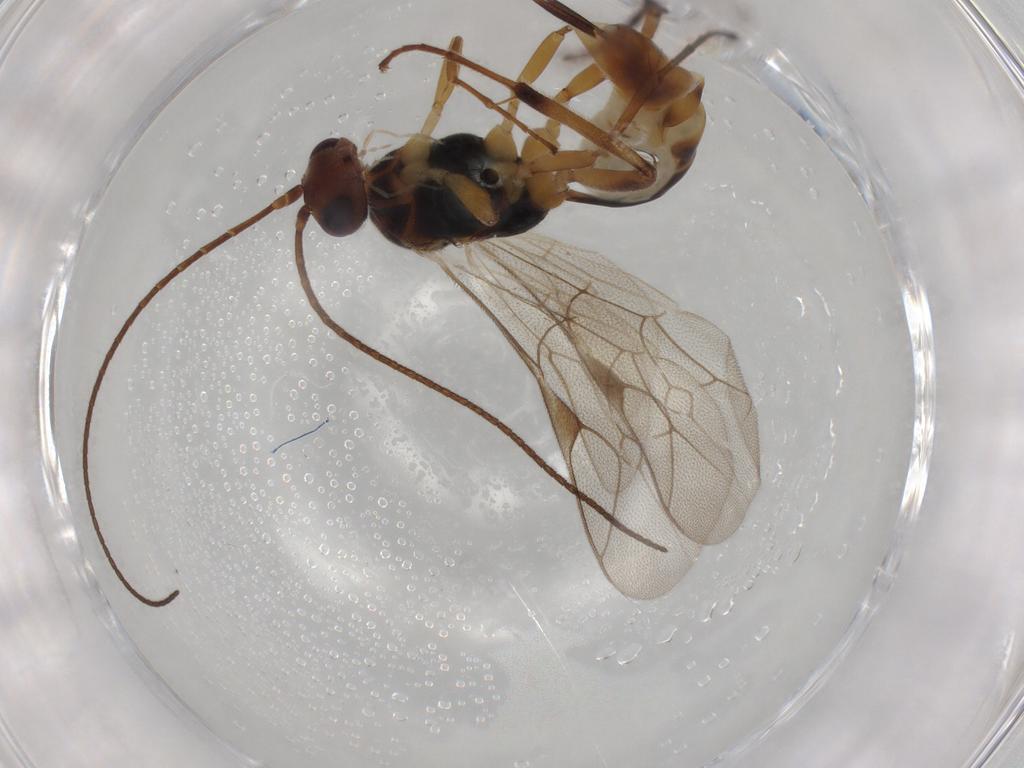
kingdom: Animalia
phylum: Arthropoda
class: Insecta
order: Hymenoptera
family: Ichneumonidae
